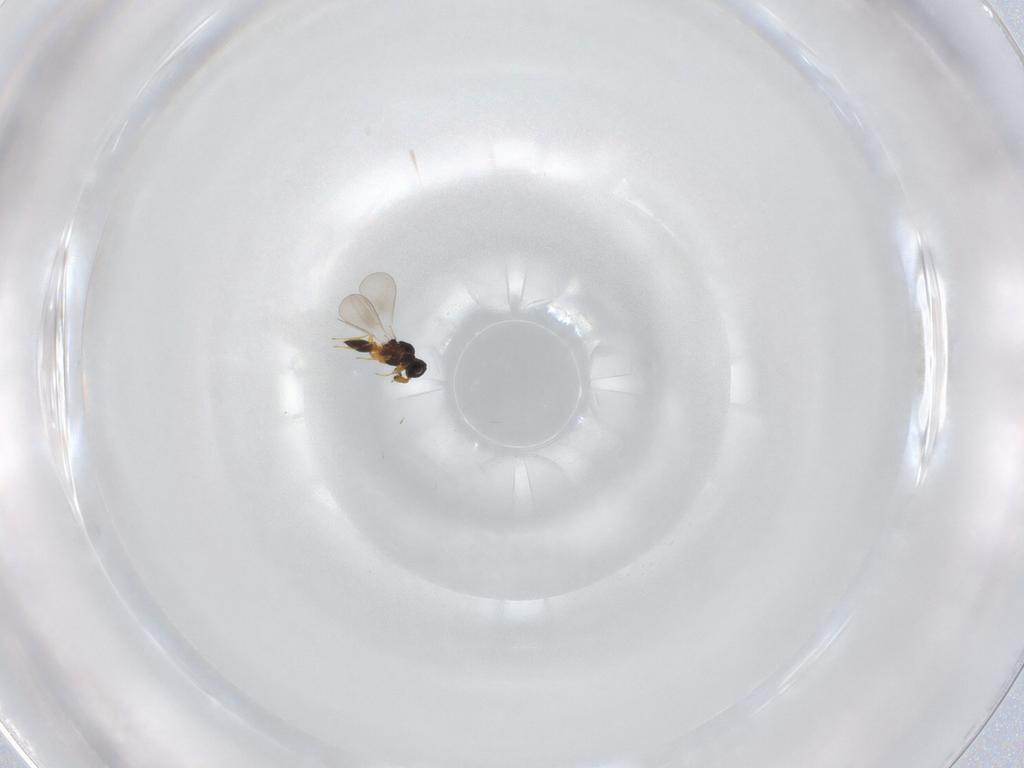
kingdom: Animalia
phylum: Arthropoda
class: Insecta
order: Hymenoptera
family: Platygastridae
